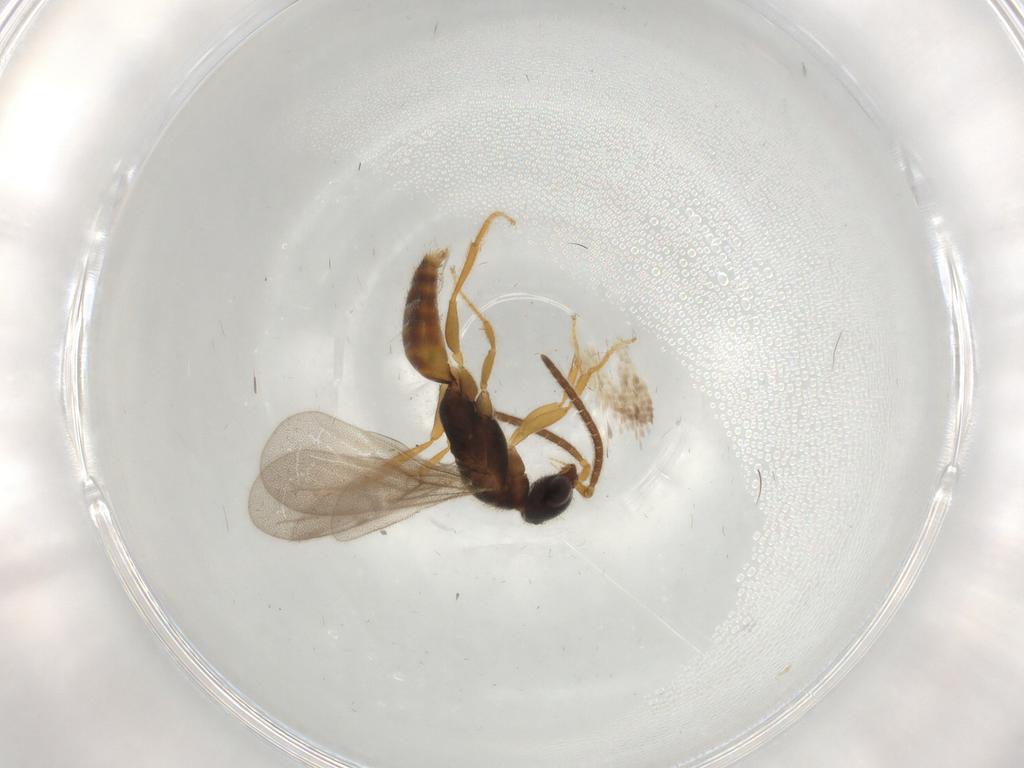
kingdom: Animalia
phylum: Arthropoda
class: Insecta
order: Hymenoptera
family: Bethylidae
